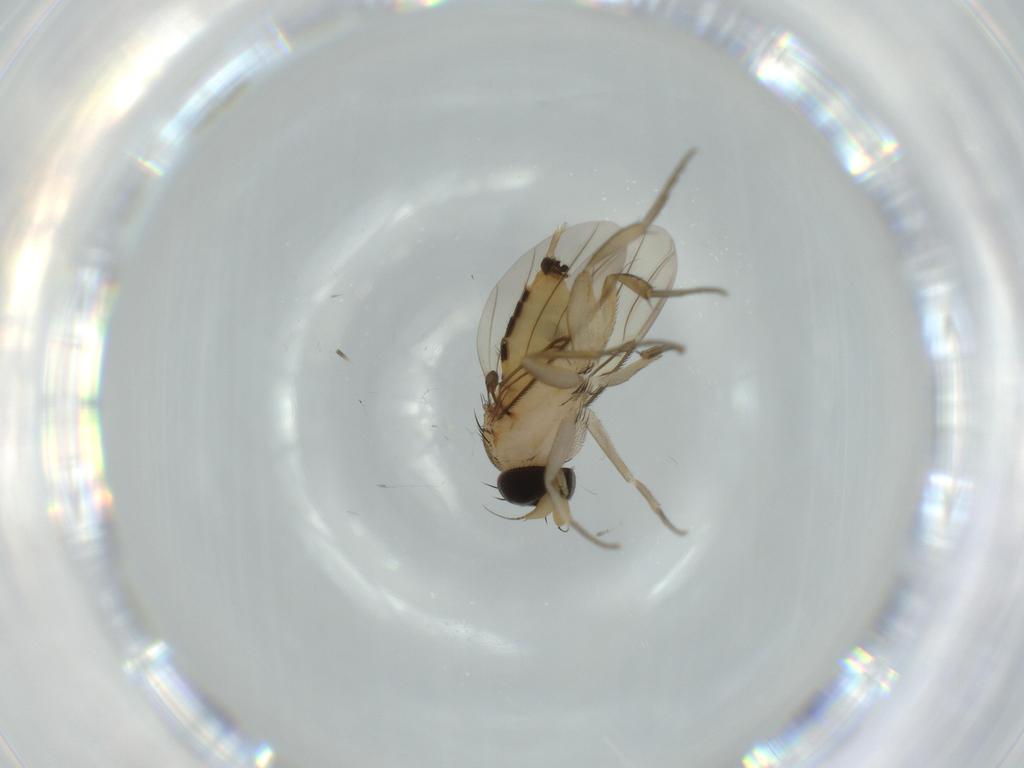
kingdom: Animalia
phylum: Arthropoda
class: Insecta
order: Diptera
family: Phoridae
